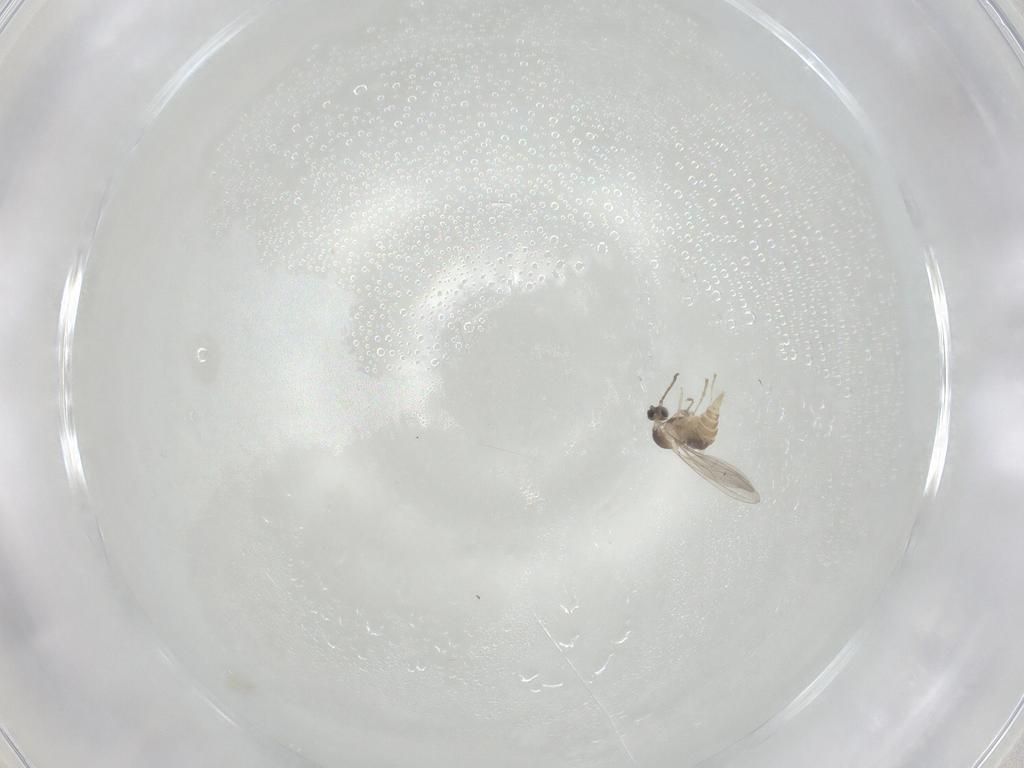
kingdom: Animalia
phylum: Arthropoda
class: Insecta
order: Diptera
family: Cecidomyiidae
